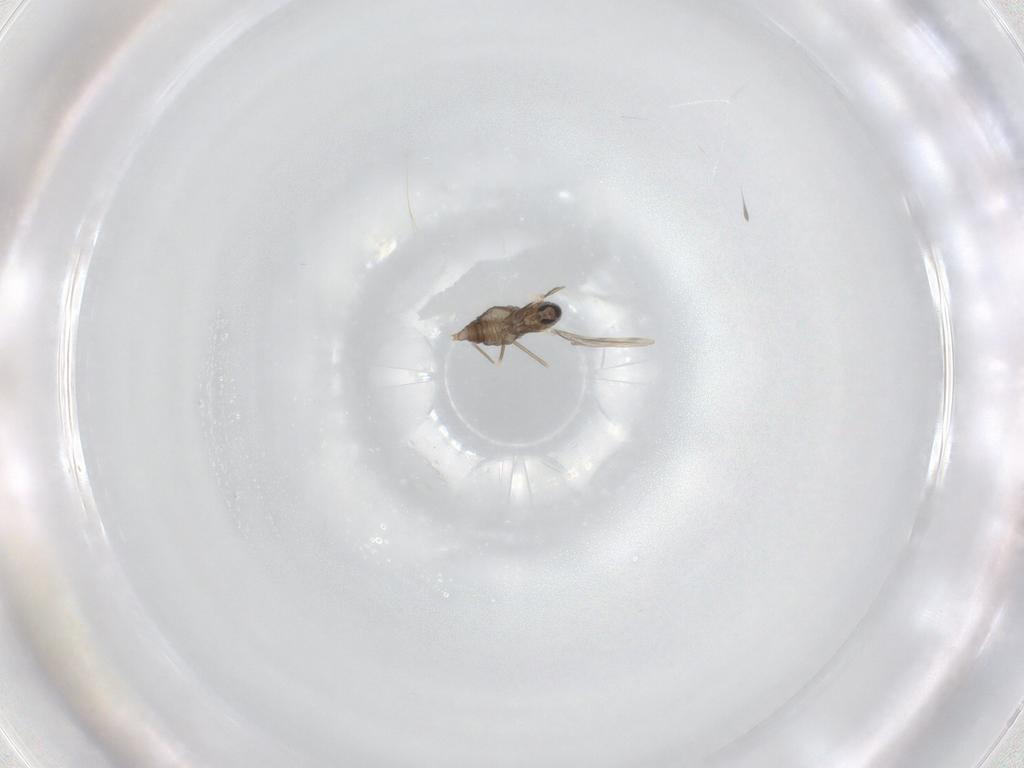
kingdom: Animalia
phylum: Arthropoda
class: Insecta
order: Diptera
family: Cecidomyiidae
